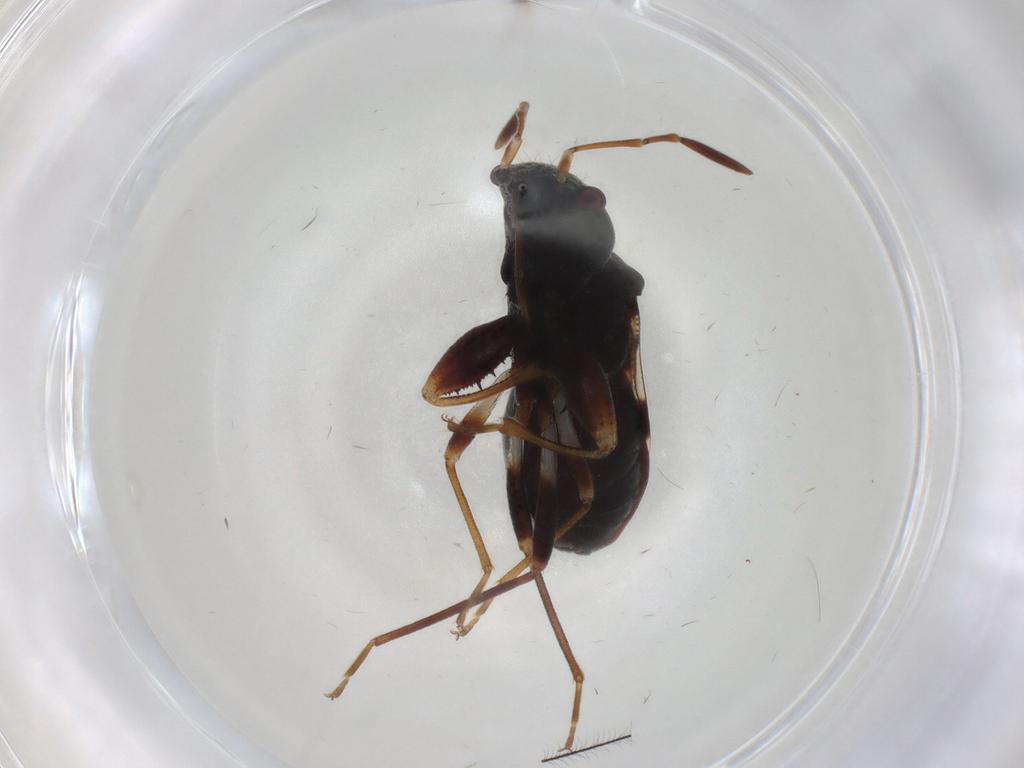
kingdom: Animalia
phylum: Arthropoda
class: Insecta
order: Hemiptera
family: Rhyparochromidae
